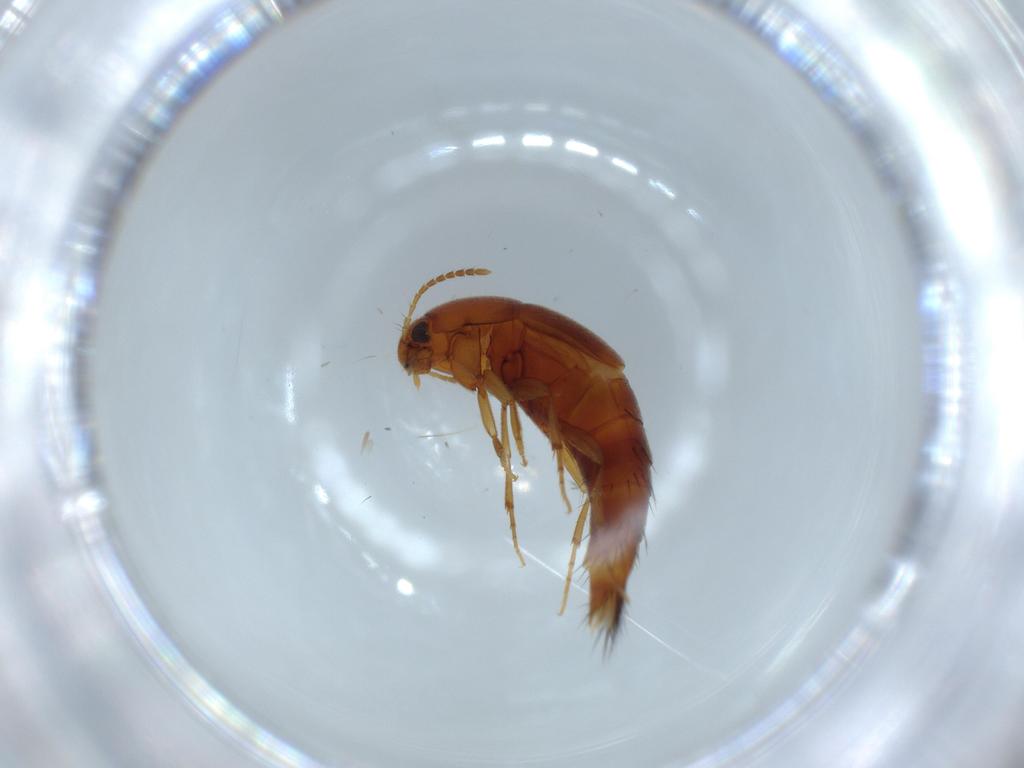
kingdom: Animalia
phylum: Arthropoda
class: Insecta
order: Coleoptera
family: Staphylinidae
